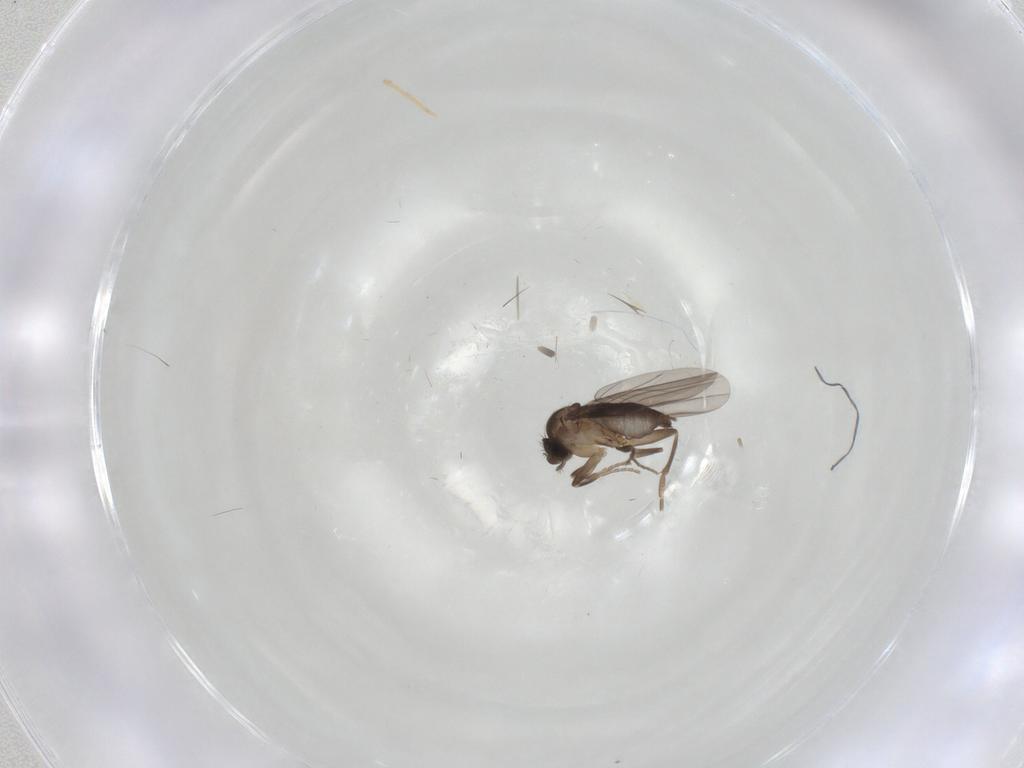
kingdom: Animalia
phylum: Arthropoda
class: Insecta
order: Diptera
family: Phoridae
